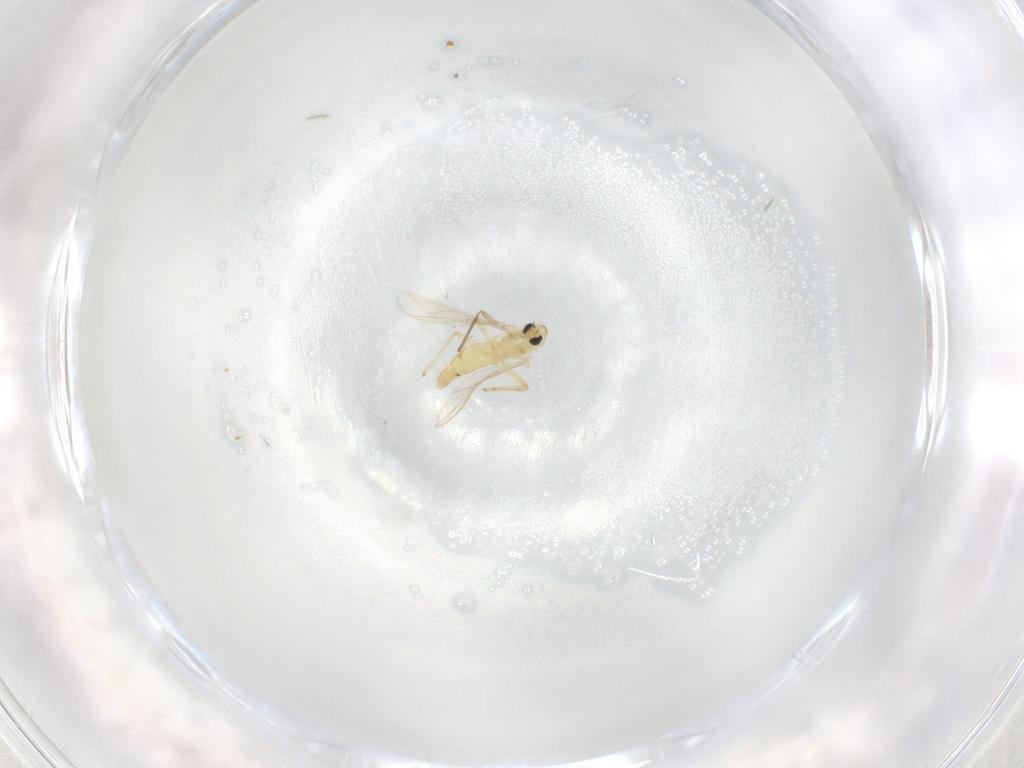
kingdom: Animalia
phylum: Arthropoda
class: Insecta
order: Diptera
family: Chironomidae
